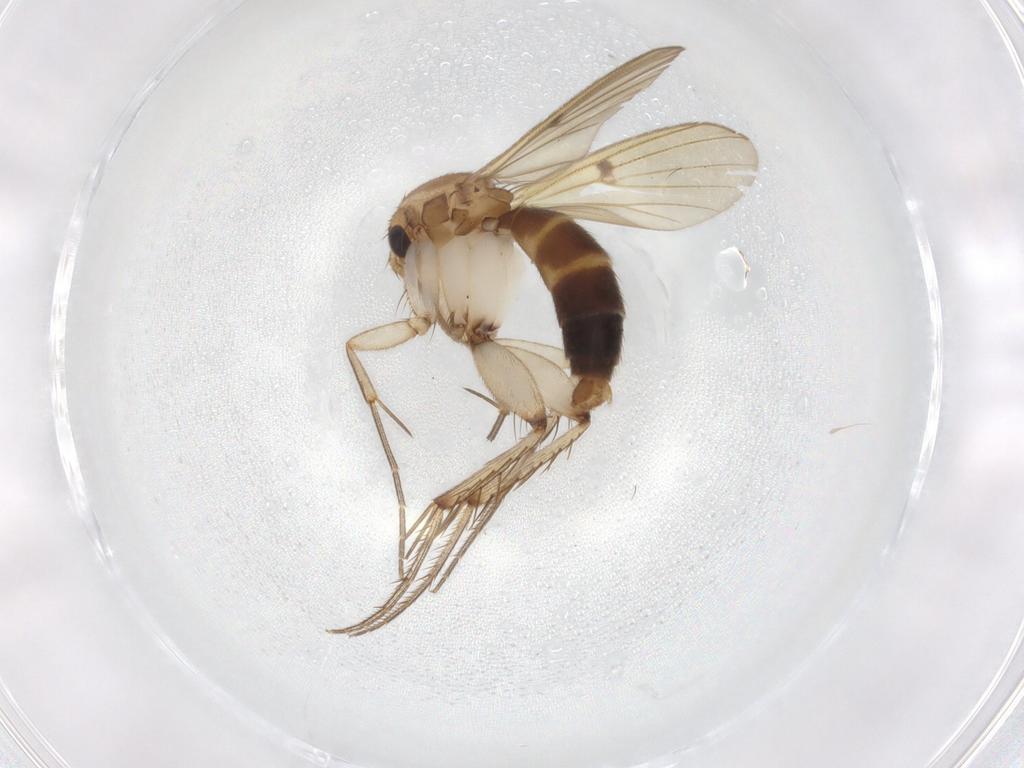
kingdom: Animalia
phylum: Arthropoda
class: Insecta
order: Diptera
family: Mycetophilidae
